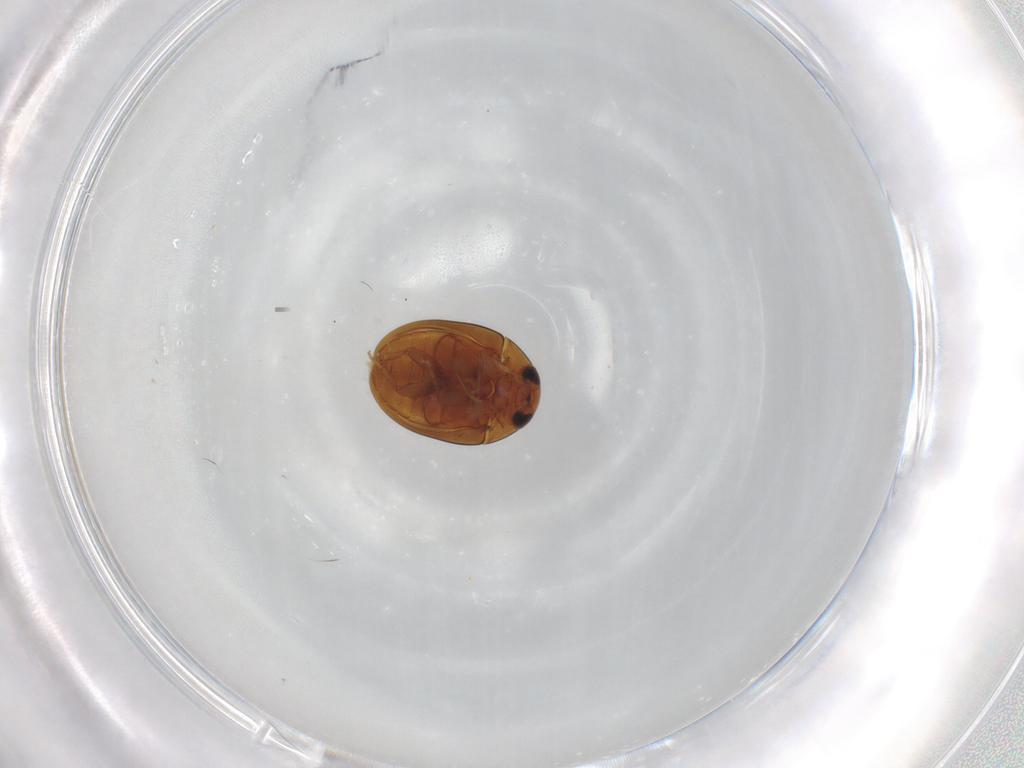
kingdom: Animalia
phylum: Arthropoda
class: Insecta
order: Coleoptera
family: Phalacridae
